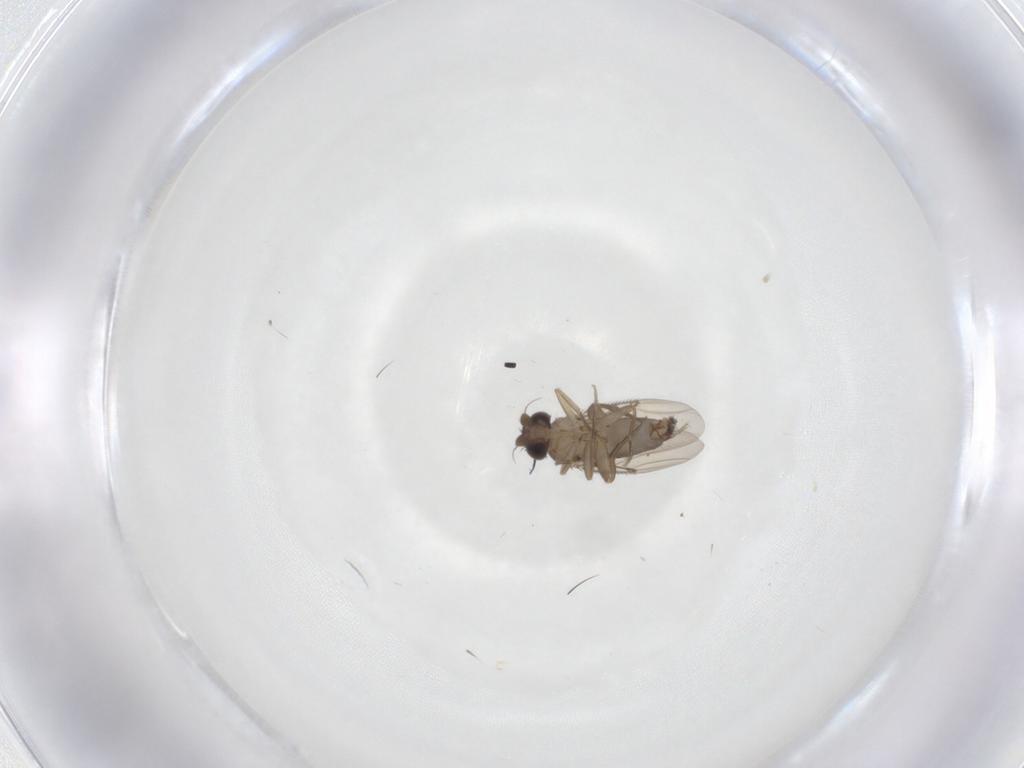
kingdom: Animalia
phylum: Arthropoda
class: Insecta
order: Diptera
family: Phoridae
